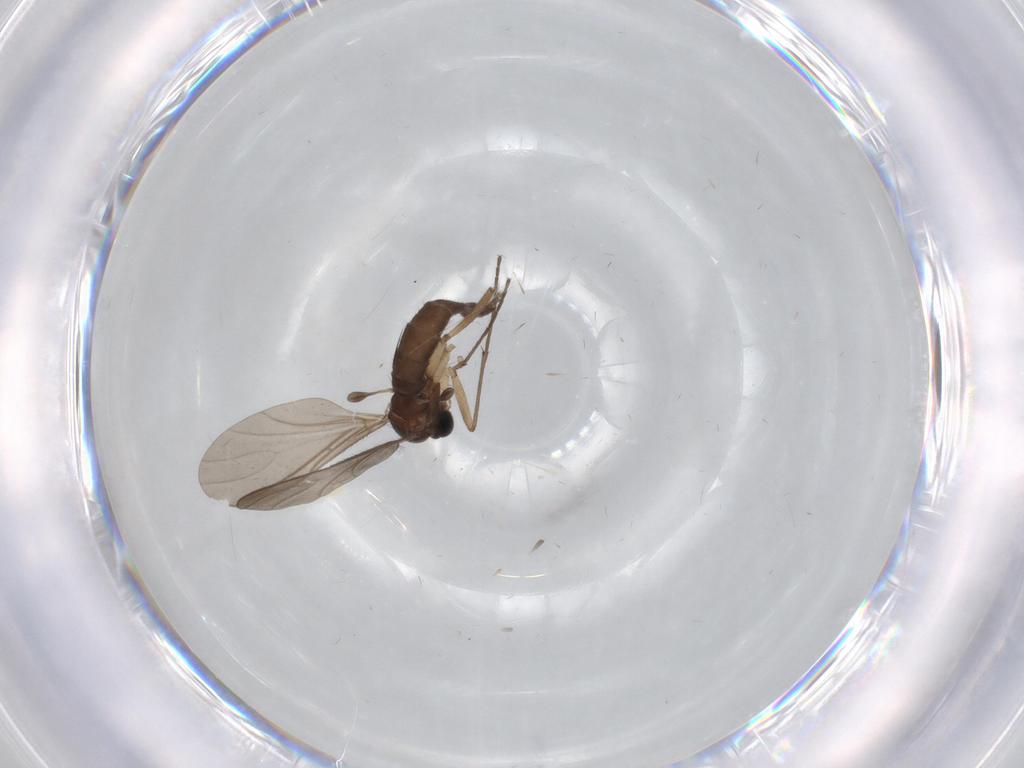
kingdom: Animalia
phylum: Arthropoda
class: Insecta
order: Diptera
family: Sciaridae
